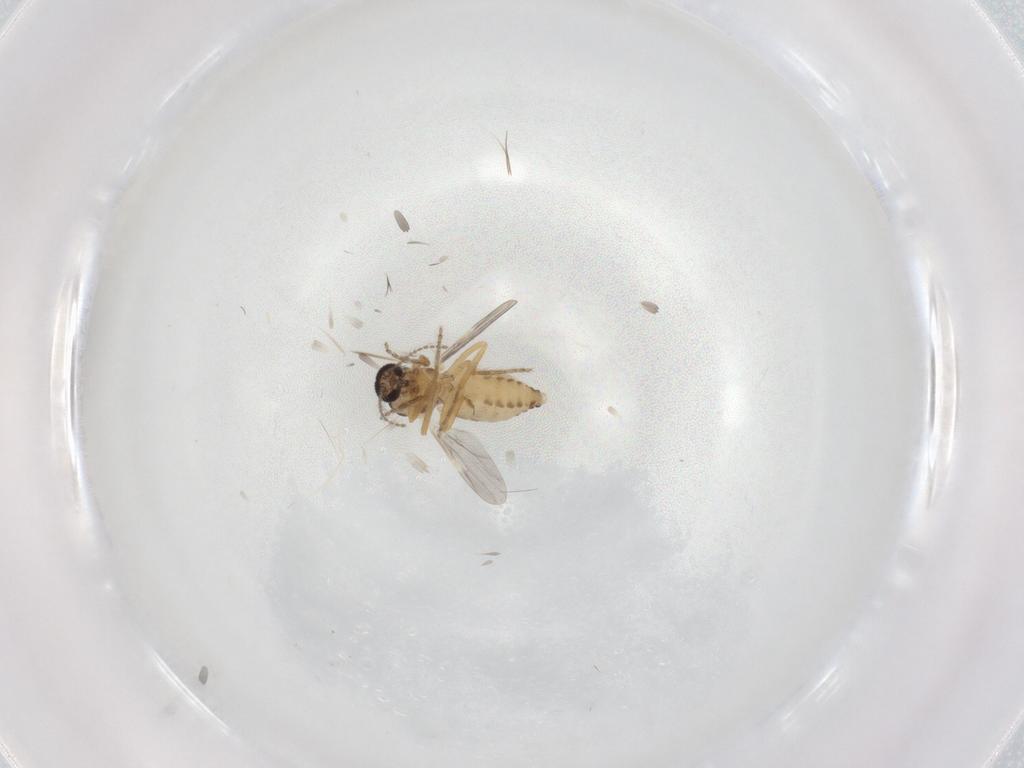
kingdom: Animalia
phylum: Arthropoda
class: Insecta
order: Diptera
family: Ceratopogonidae
